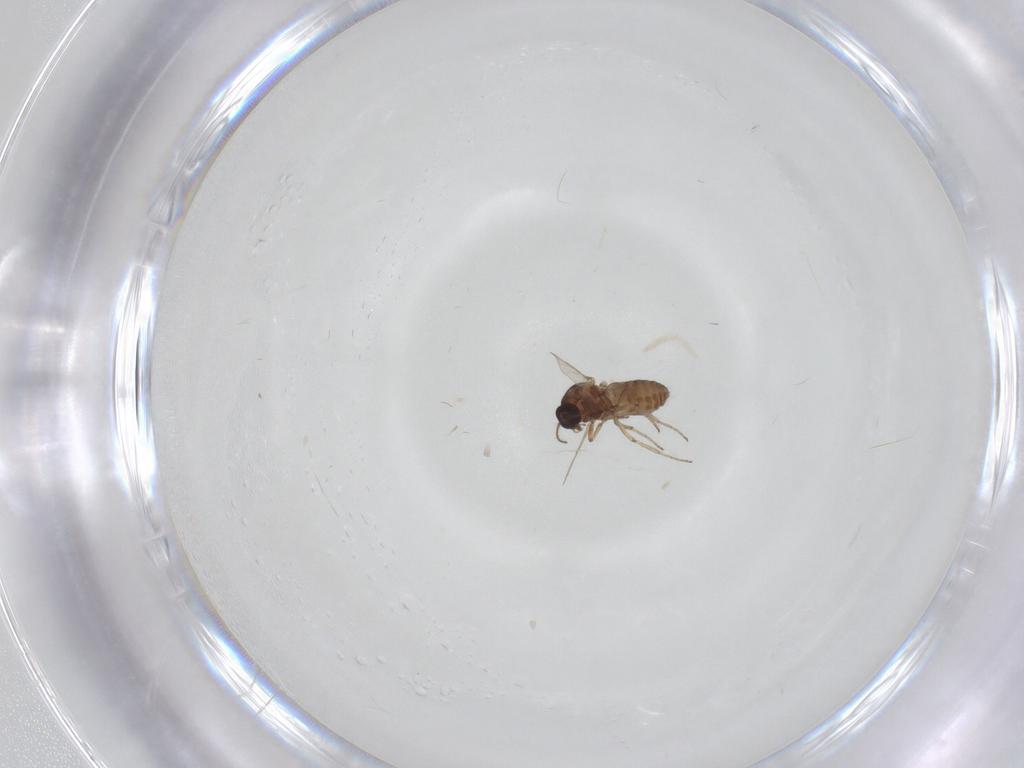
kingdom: Animalia
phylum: Arthropoda
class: Insecta
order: Diptera
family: Ceratopogonidae
